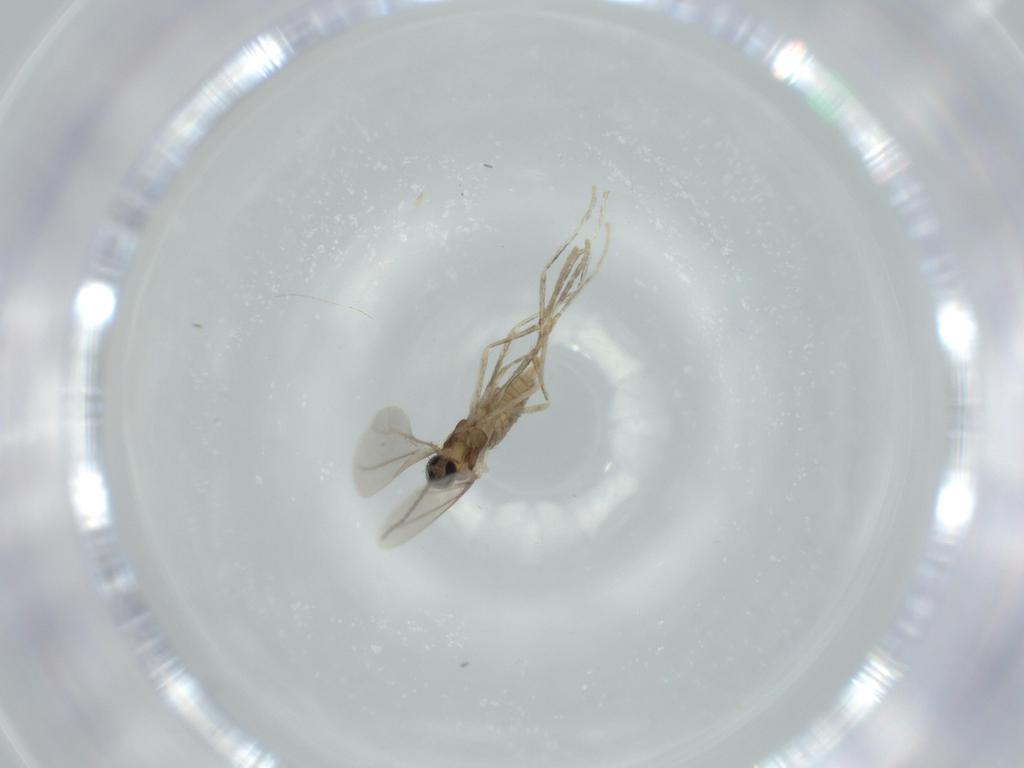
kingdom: Animalia
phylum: Arthropoda
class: Insecta
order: Diptera
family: Cecidomyiidae
